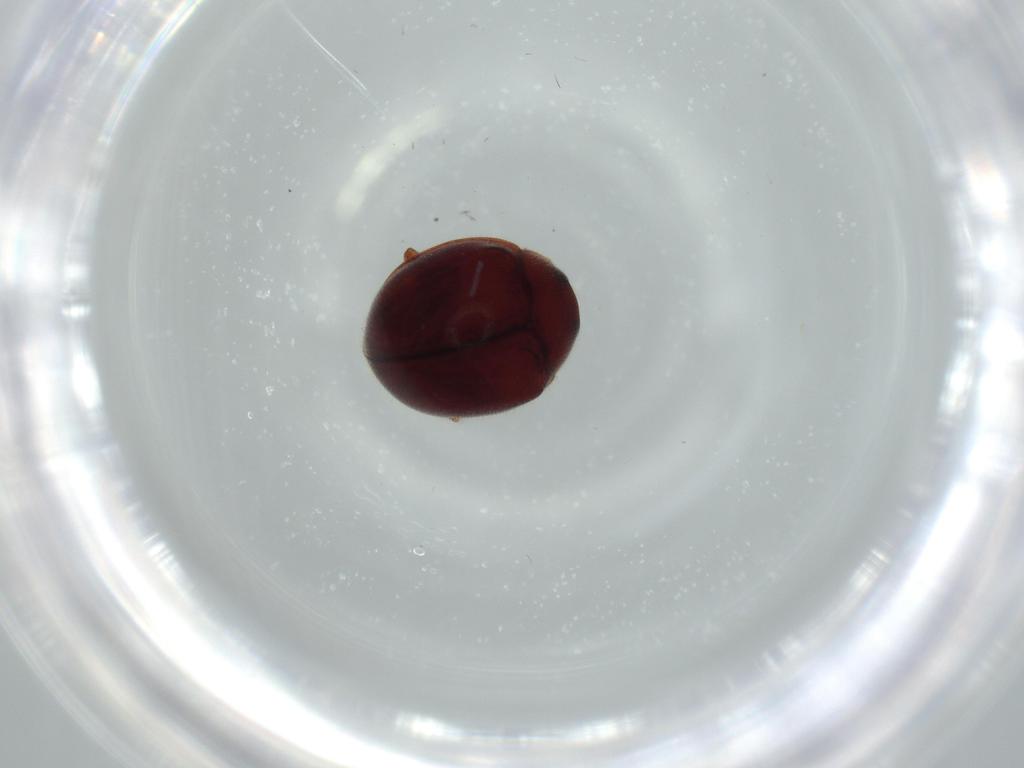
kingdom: Animalia
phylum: Arthropoda
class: Insecta
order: Coleoptera
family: Coccinellidae
